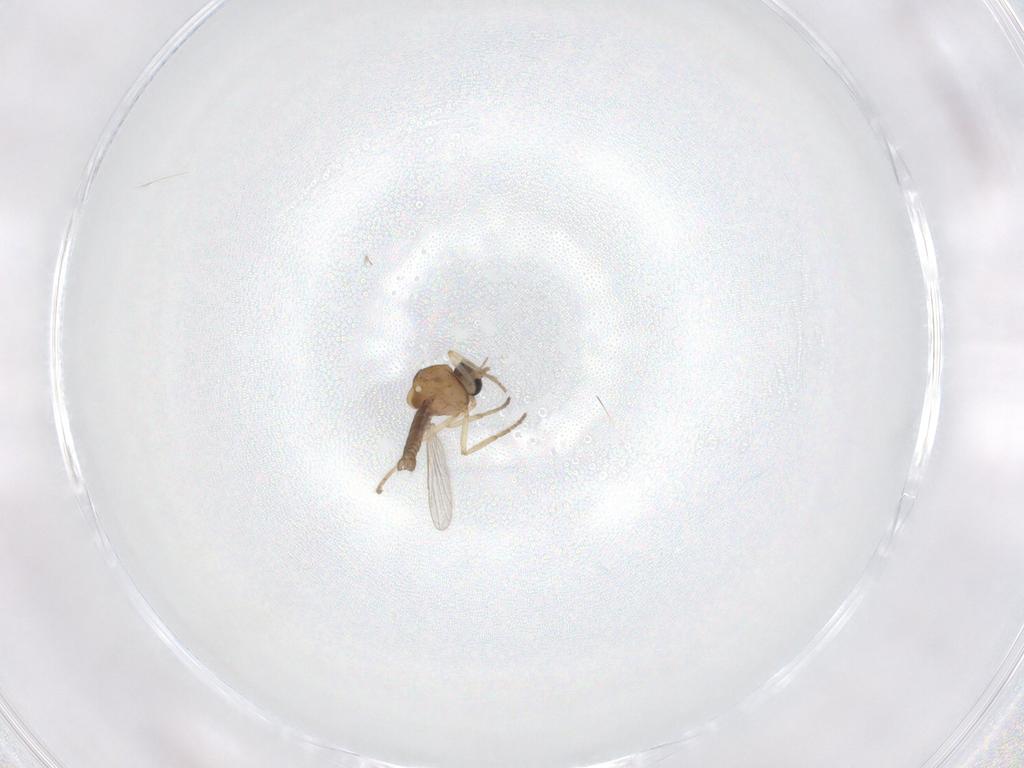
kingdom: Animalia
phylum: Arthropoda
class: Insecta
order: Diptera
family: Ceratopogonidae
